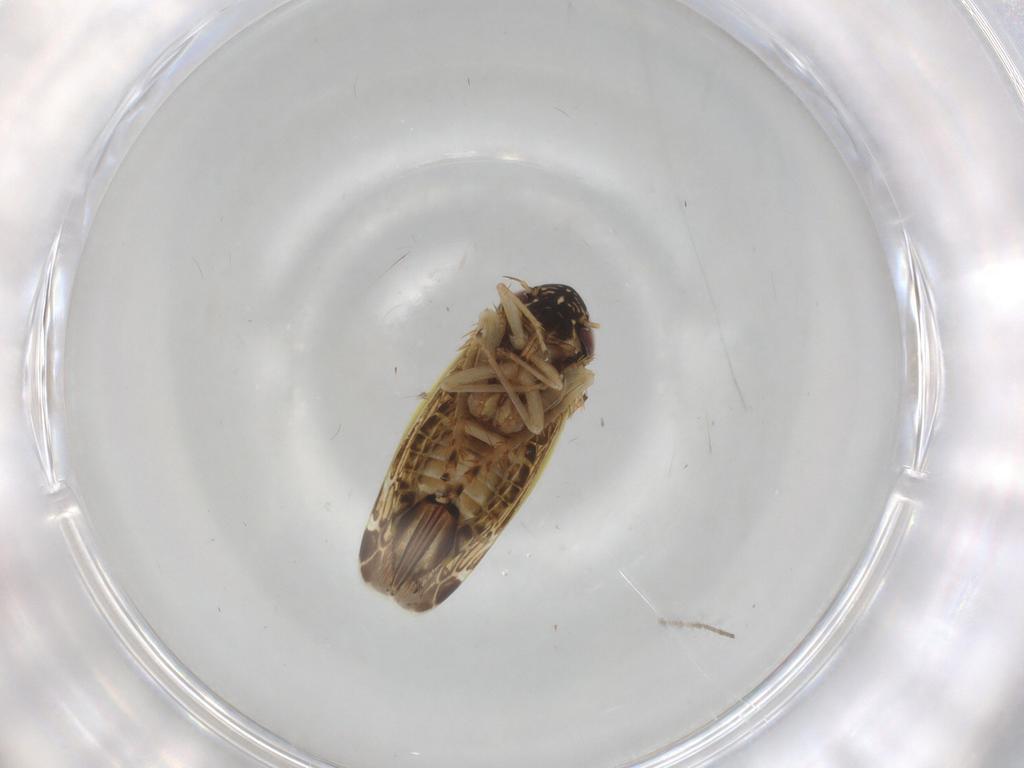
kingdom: Animalia
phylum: Arthropoda
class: Insecta
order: Hemiptera
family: Cicadellidae
